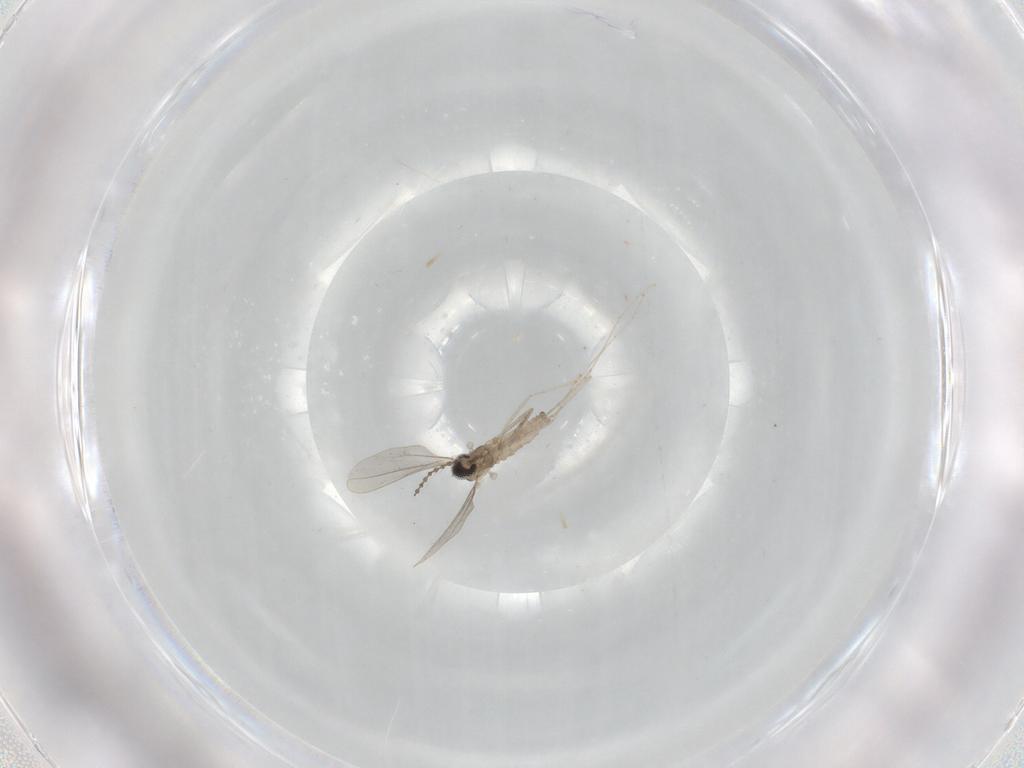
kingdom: Animalia
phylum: Arthropoda
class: Insecta
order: Diptera
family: Cecidomyiidae
